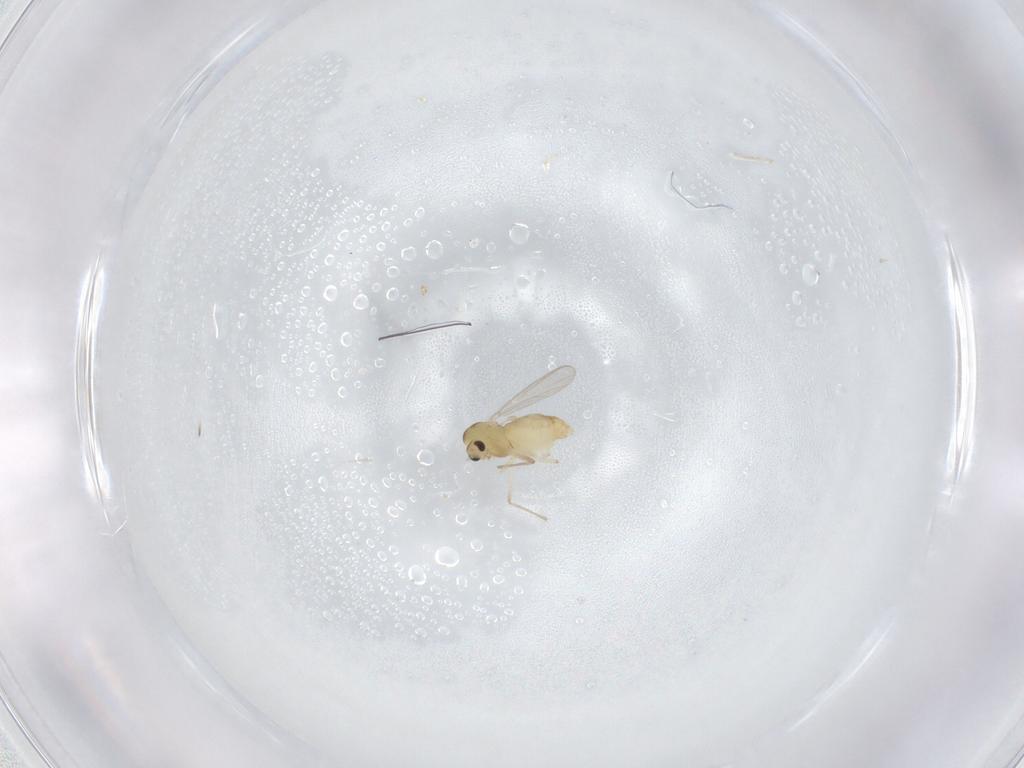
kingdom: Animalia
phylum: Arthropoda
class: Insecta
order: Diptera
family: Chironomidae
